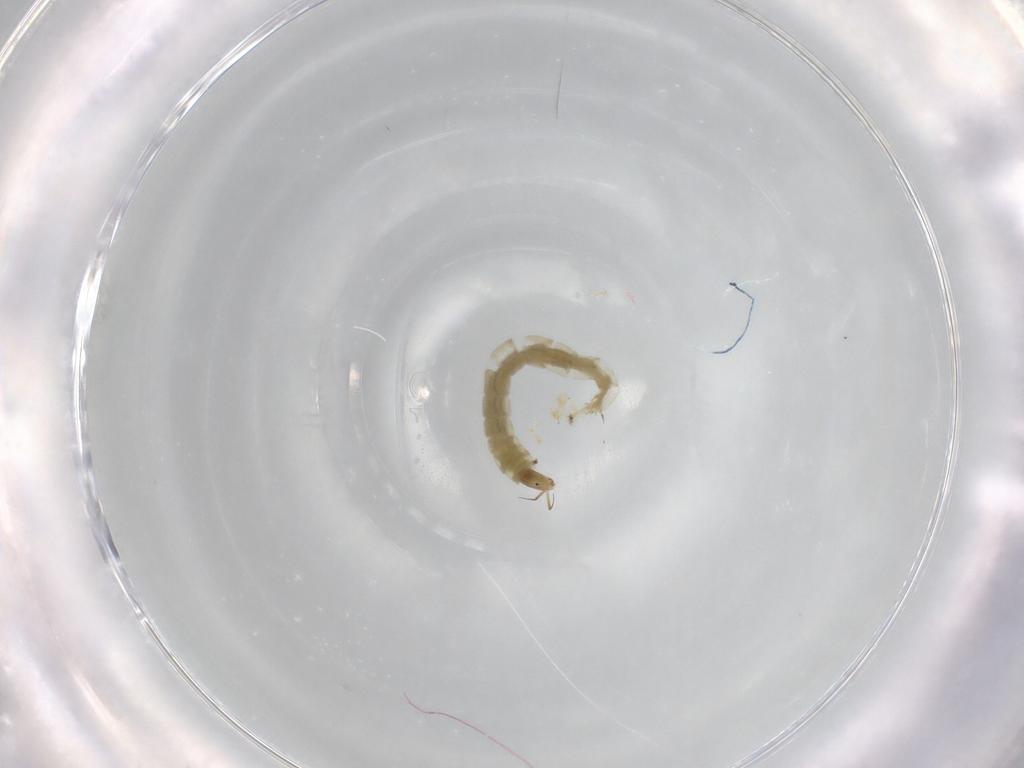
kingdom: Animalia
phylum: Arthropoda
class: Insecta
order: Diptera
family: Chironomidae
